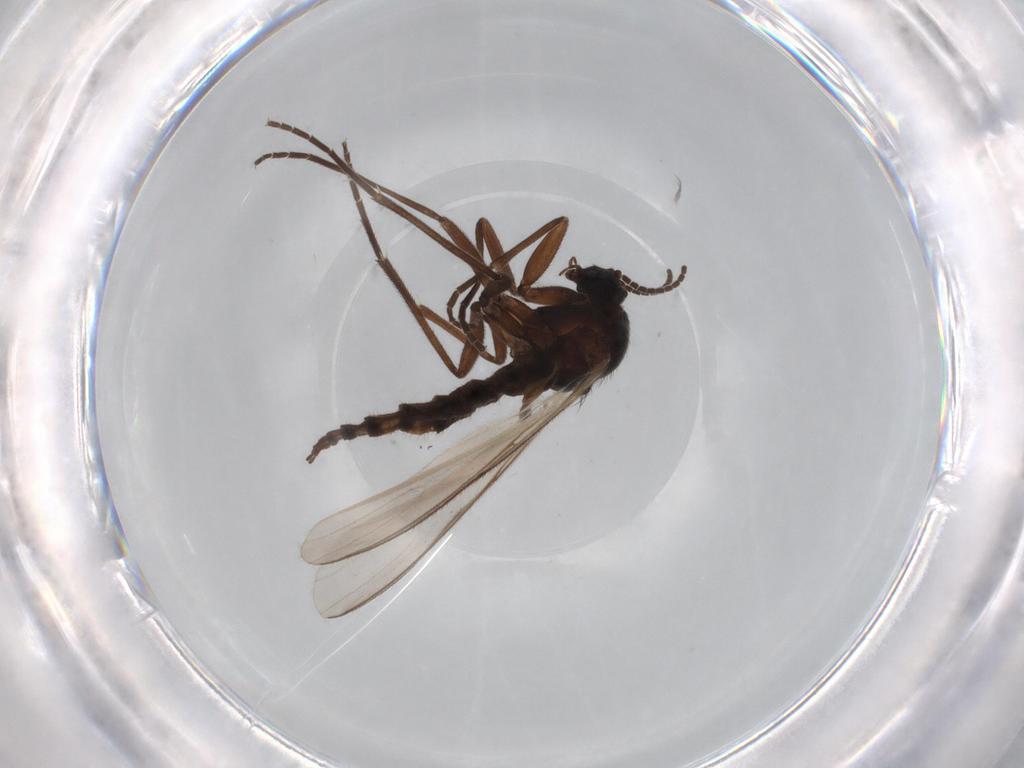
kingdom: Animalia
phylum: Arthropoda
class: Insecta
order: Diptera
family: Sciaridae
